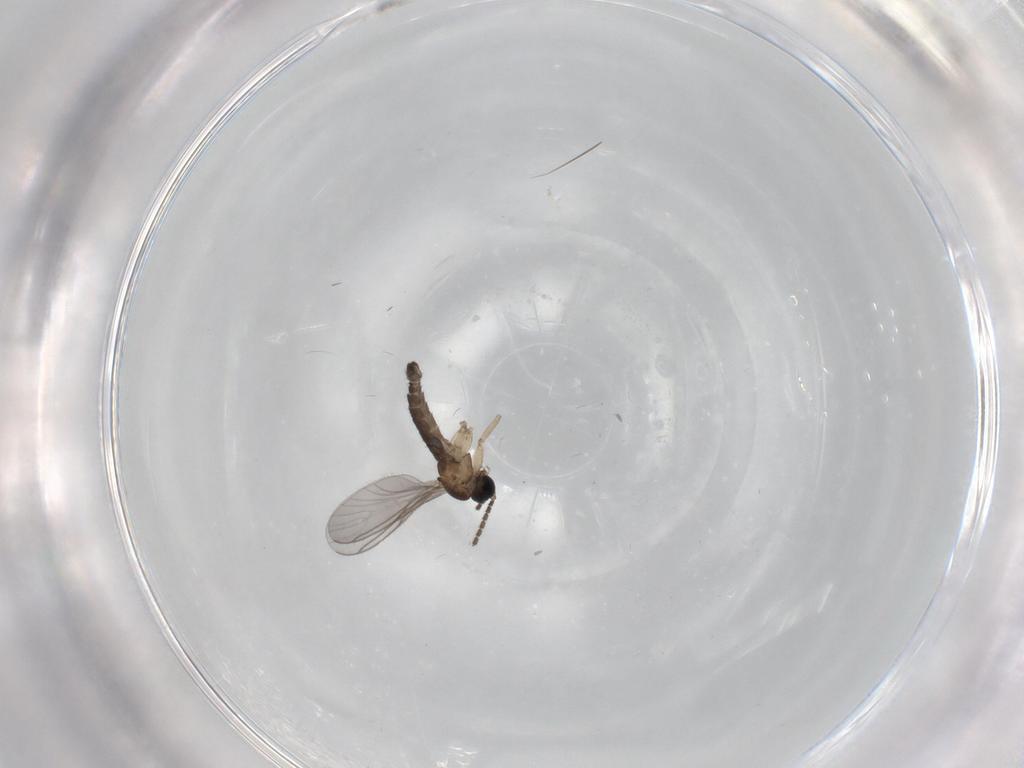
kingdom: Animalia
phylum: Arthropoda
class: Insecta
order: Diptera
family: Sciaridae
